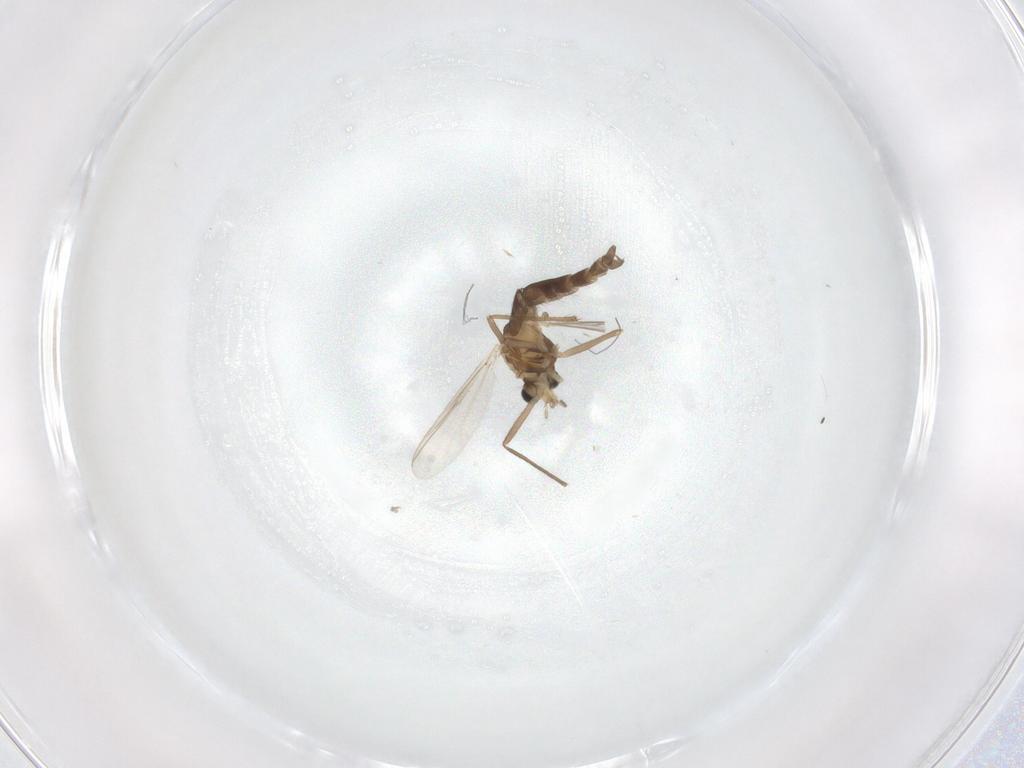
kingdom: Animalia
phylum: Arthropoda
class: Insecta
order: Diptera
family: Chironomidae
